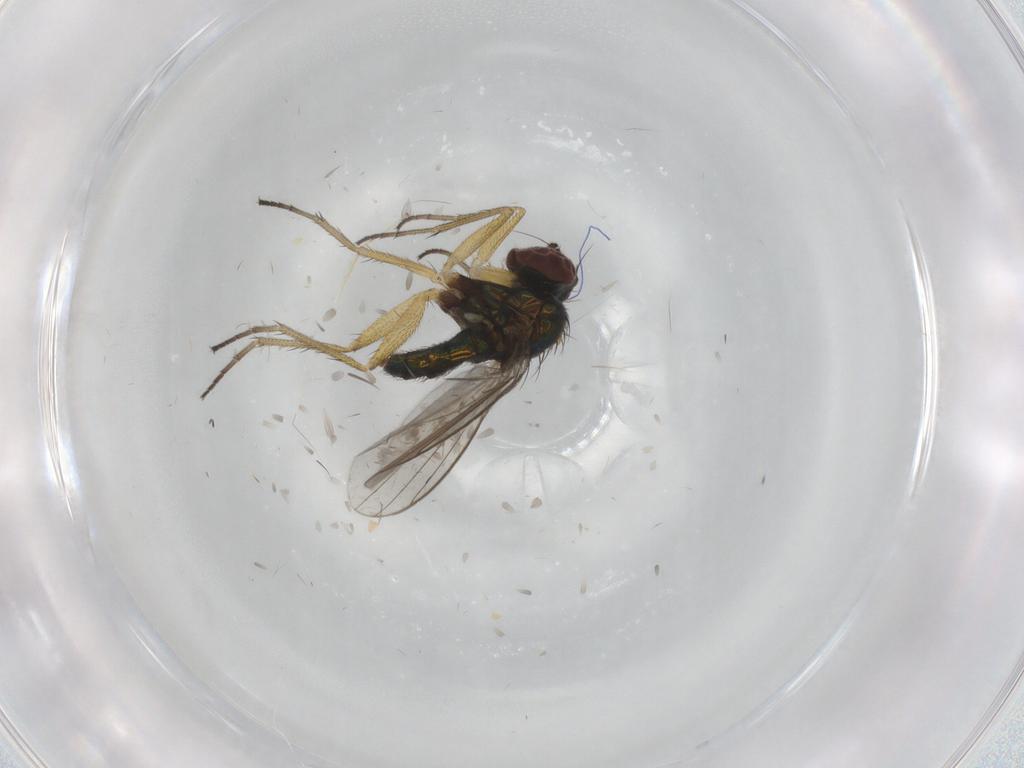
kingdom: Animalia
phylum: Arthropoda
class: Insecta
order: Diptera
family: Dolichopodidae
